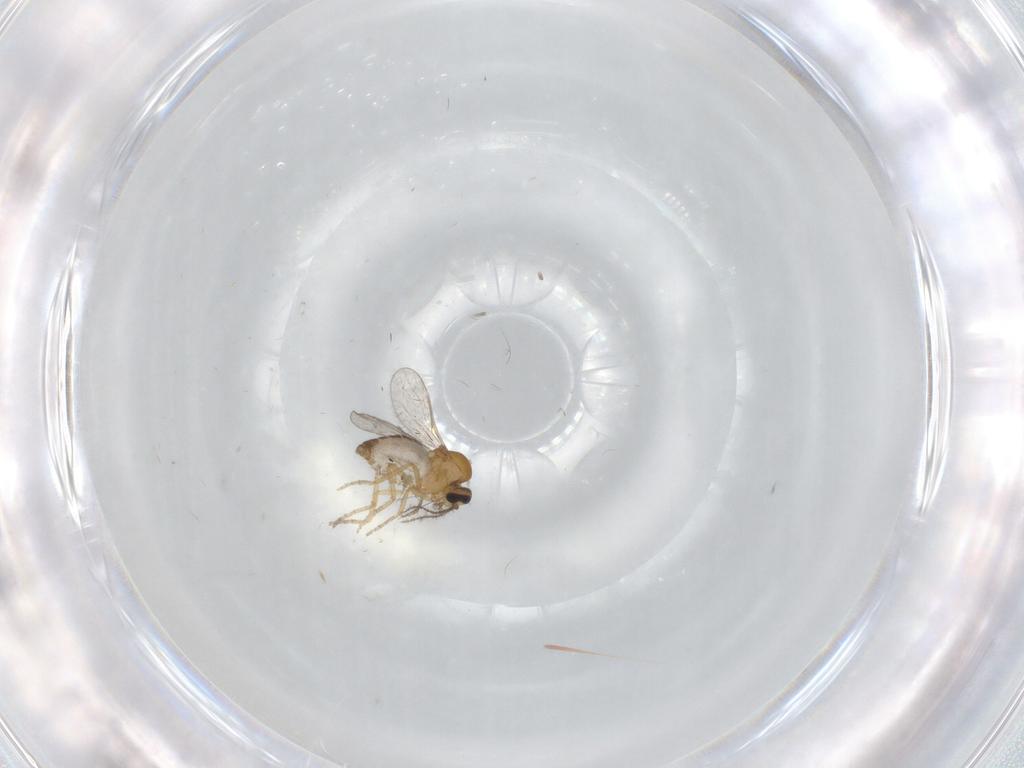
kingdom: Animalia
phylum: Arthropoda
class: Insecta
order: Diptera
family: Ceratopogonidae
